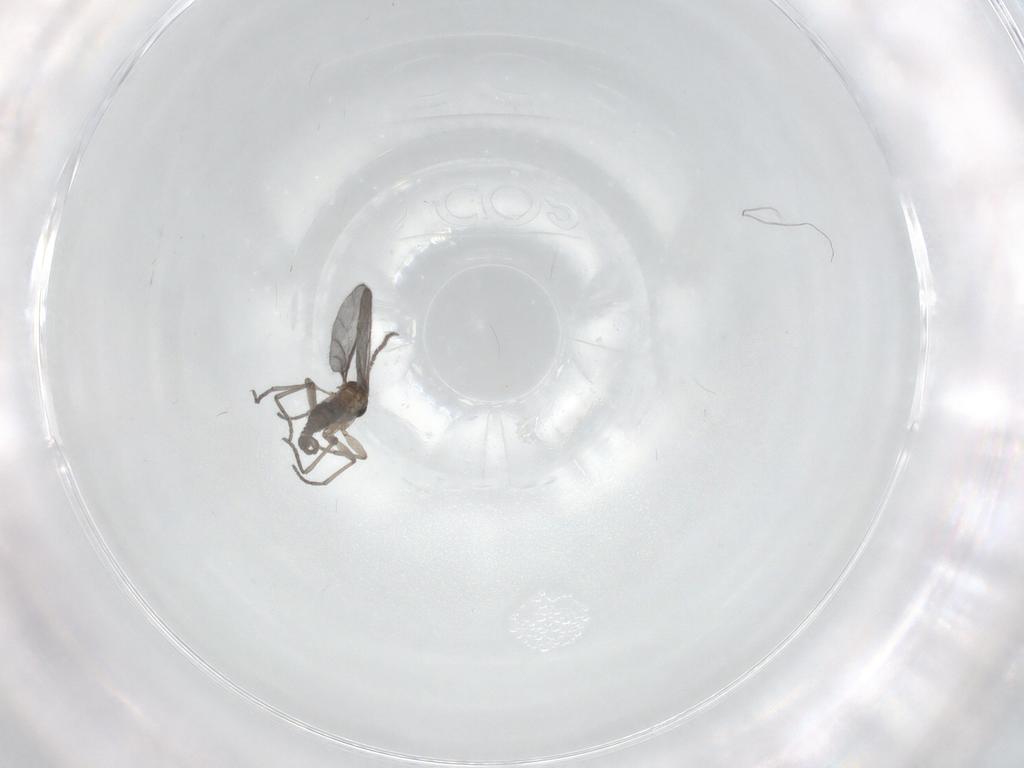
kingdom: Animalia
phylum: Arthropoda
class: Insecta
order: Diptera
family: Sciaridae
